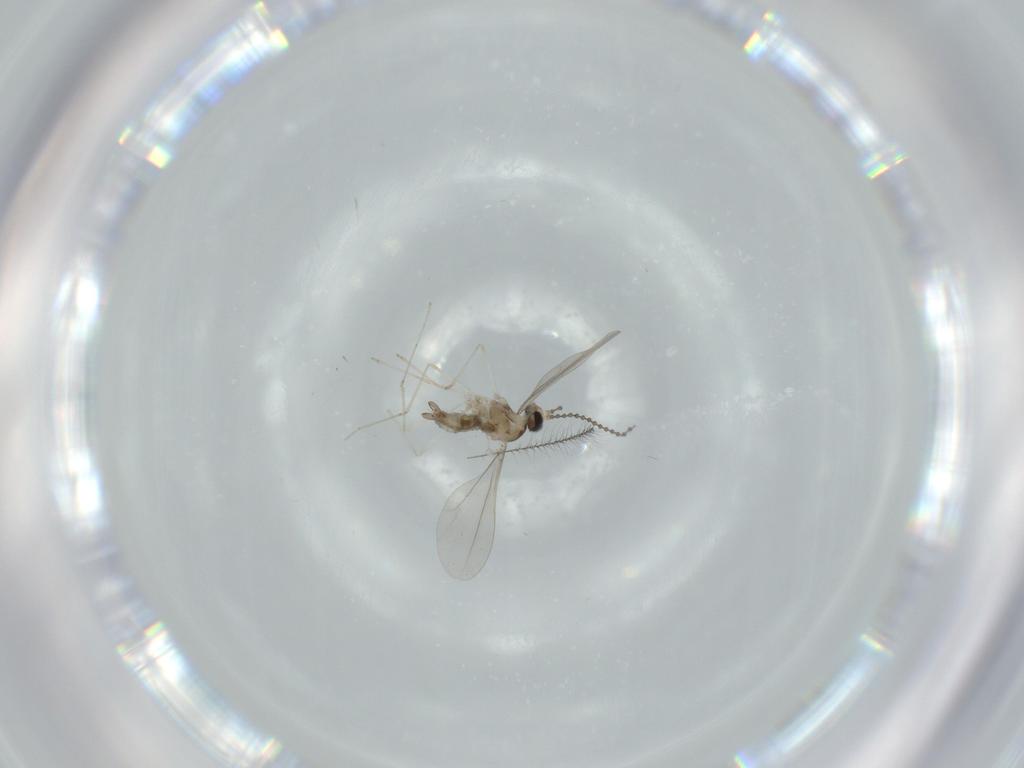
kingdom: Animalia
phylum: Arthropoda
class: Insecta
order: Diptera
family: Cecidomyiidae
